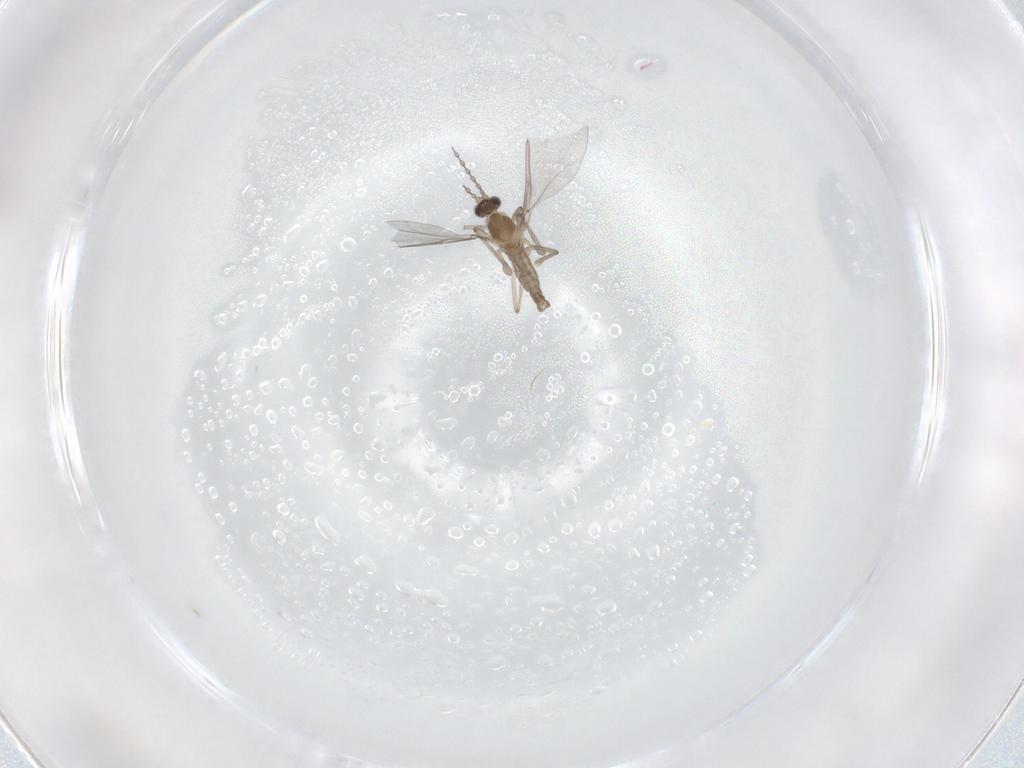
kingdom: Animalia
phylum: Arthropoda
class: Insecta
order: Diptera
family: Cecidomyiidae
